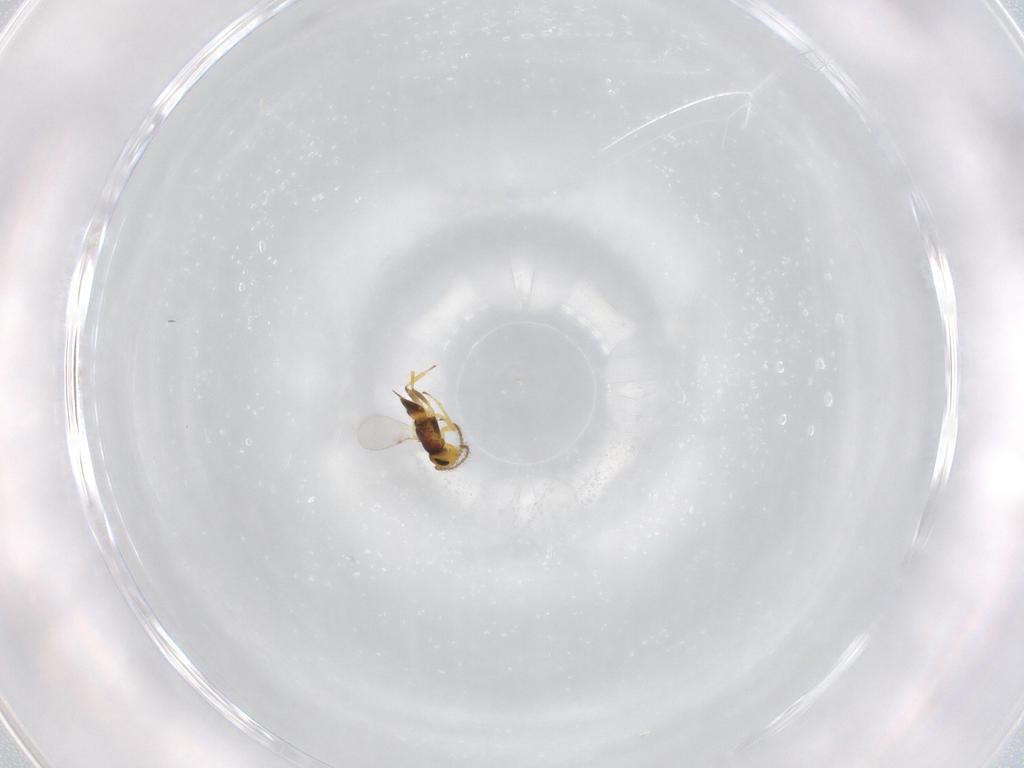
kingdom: Animalia
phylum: Arthropoda
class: Insecta
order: Hymenoptera
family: Encyrtidae
